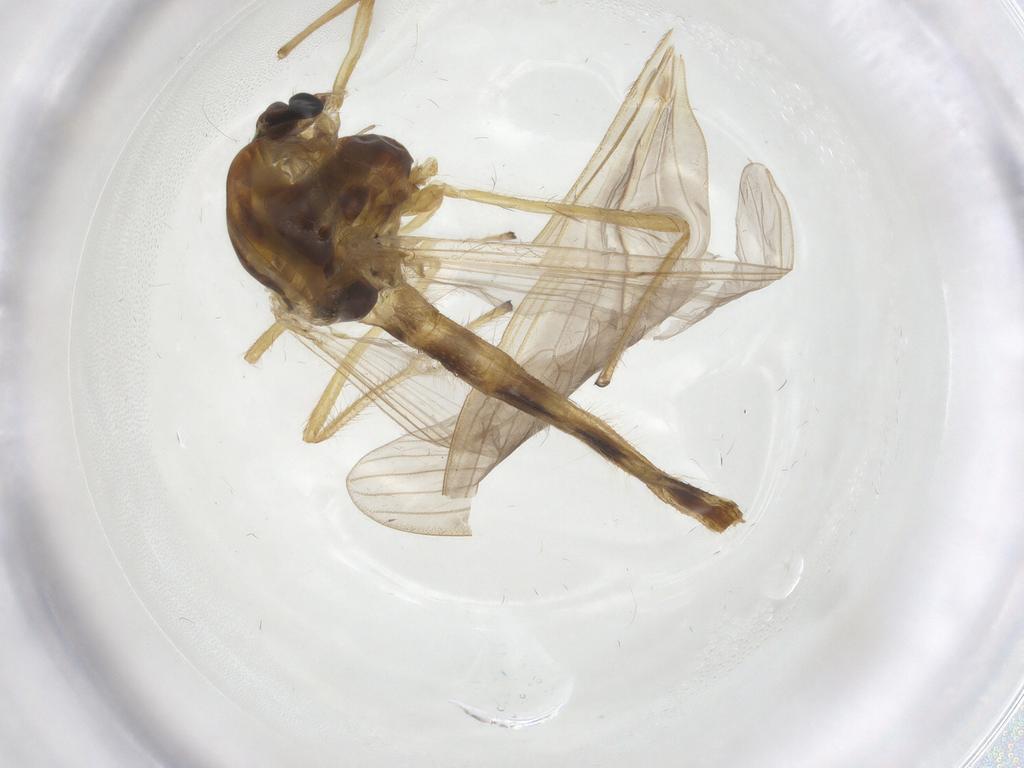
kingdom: Animalia
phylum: Arthropoda
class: Insecta
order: Diptera
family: Chironomidae
